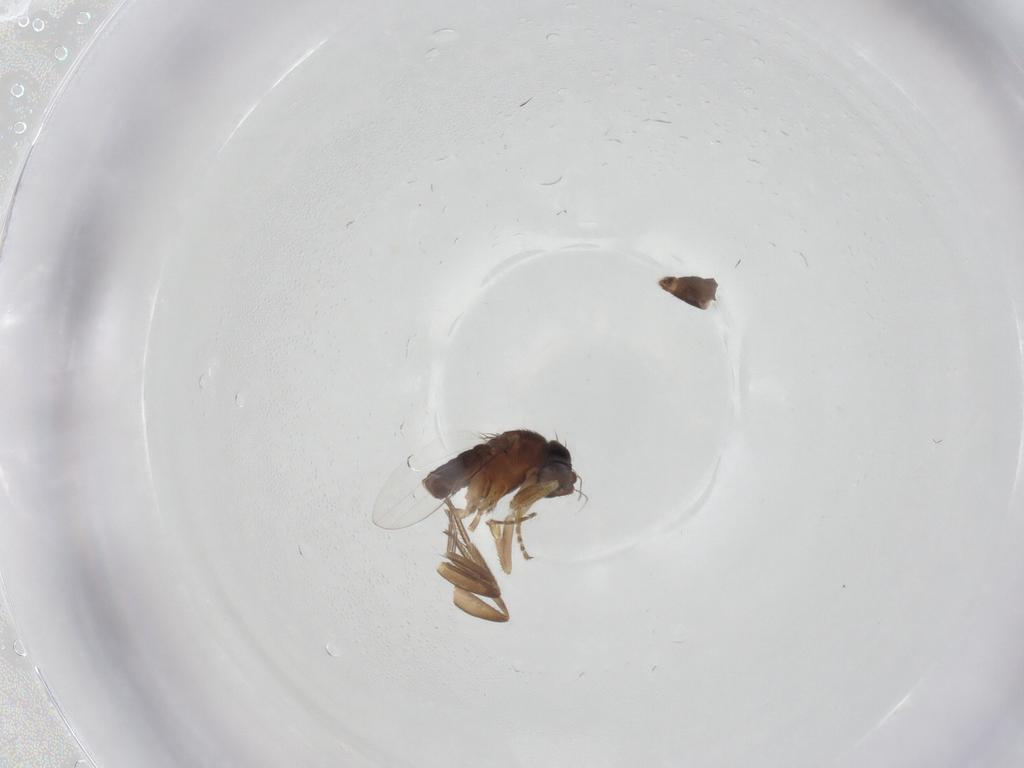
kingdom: Animalia
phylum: Arthropoda
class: Insecta
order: Diptera
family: Phoridae
